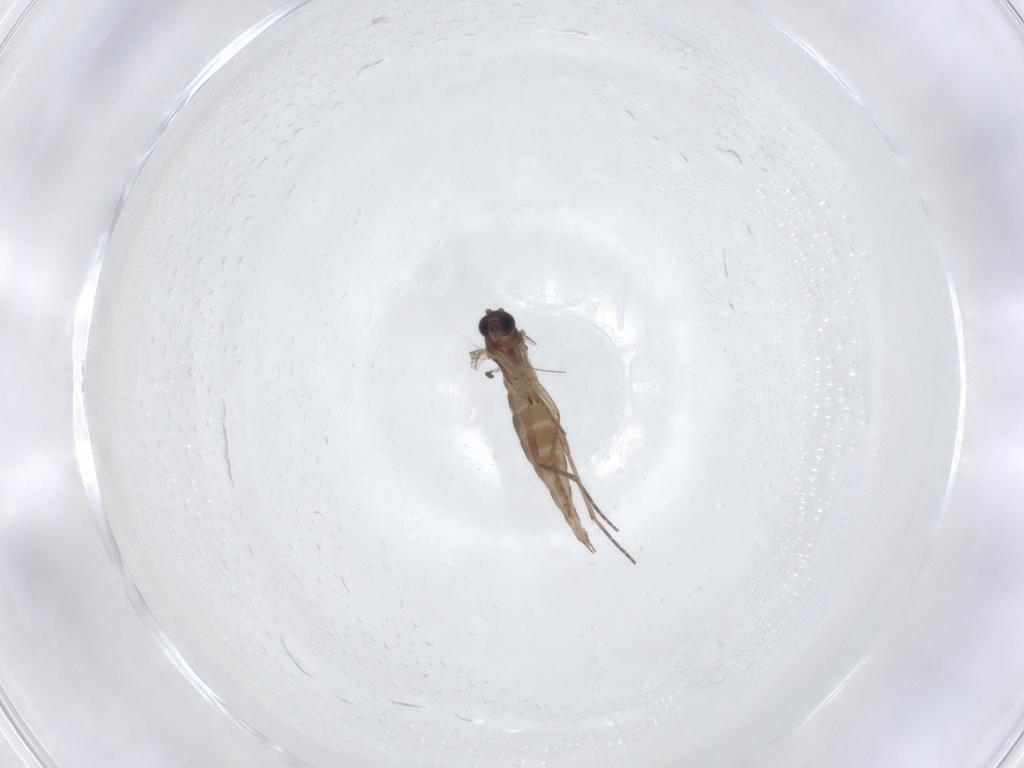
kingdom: Animalia
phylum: Arthropoda
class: Insecta
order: Diptera
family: Sciaridae
